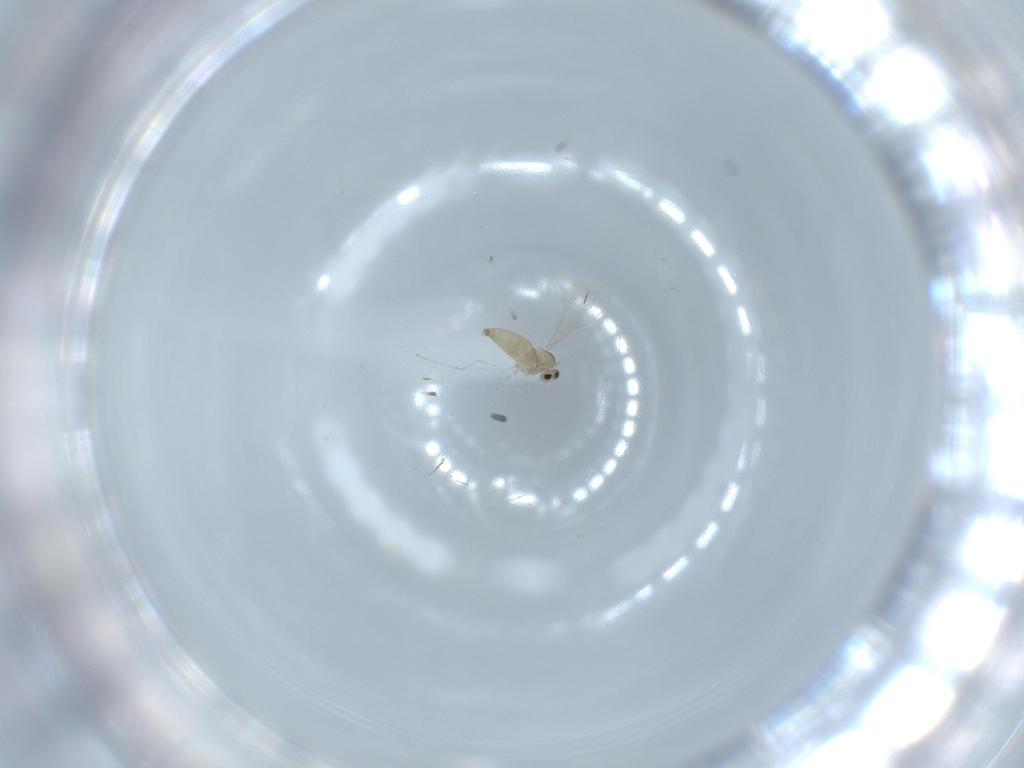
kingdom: Animalia
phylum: Arthropoda
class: Insecta
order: Diptera
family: Cecidomyiidae
